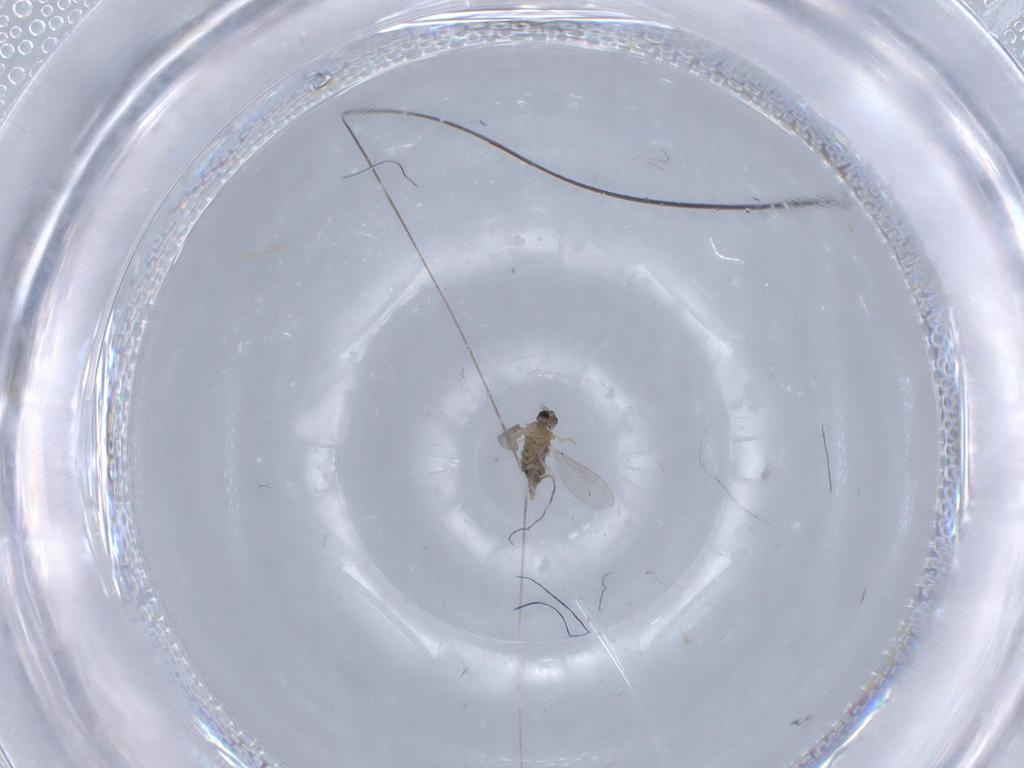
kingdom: Animalia
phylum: Arthropoda
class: Insecta
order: Diptera
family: Cecidomyiidae
